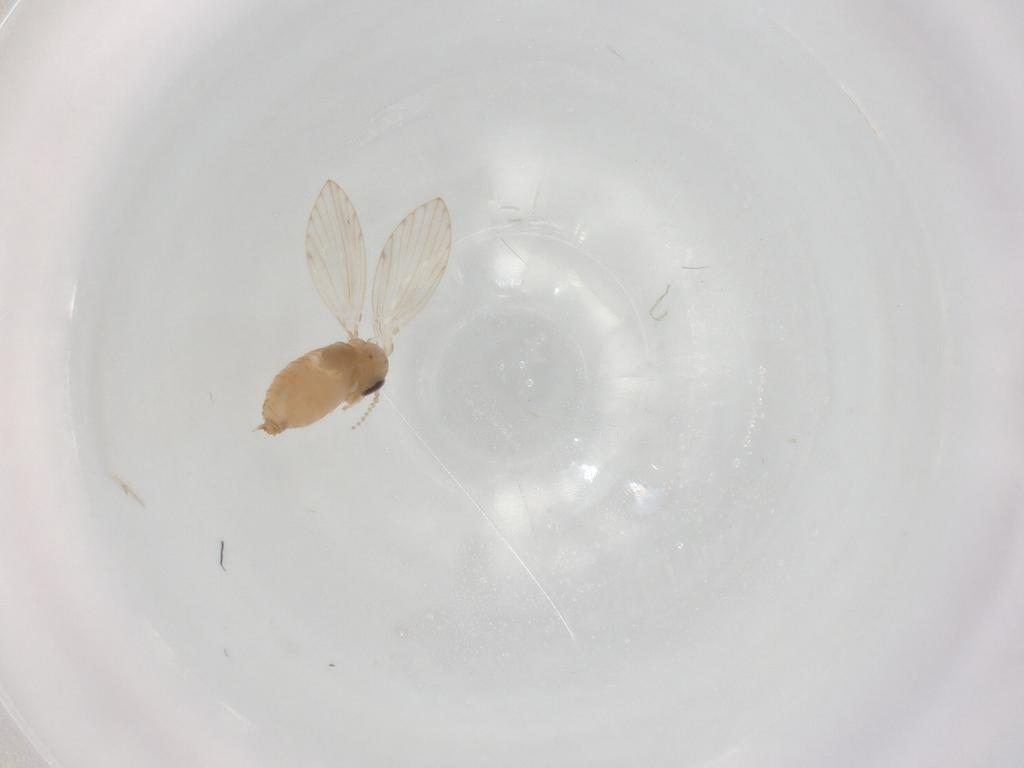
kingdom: Animalia
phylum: Arthropoda
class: Insecta
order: Diptera
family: Psychodidae
